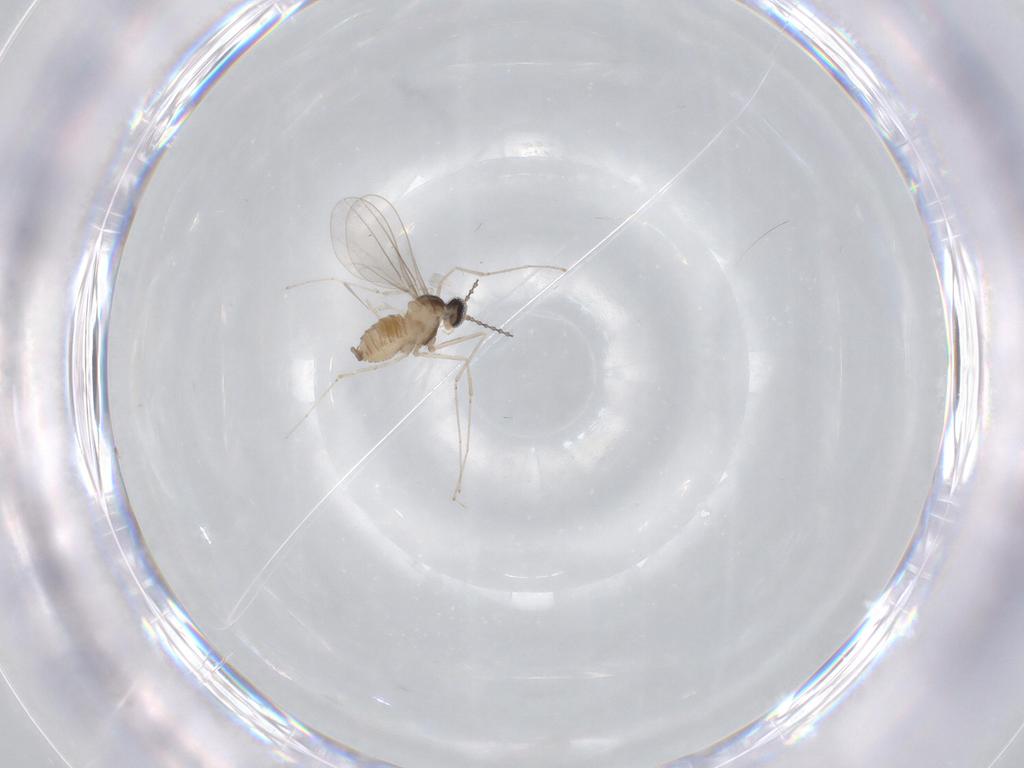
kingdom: Animalia
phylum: Arthropoda
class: Insecta
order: Diptera
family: Cecidomyiidae
